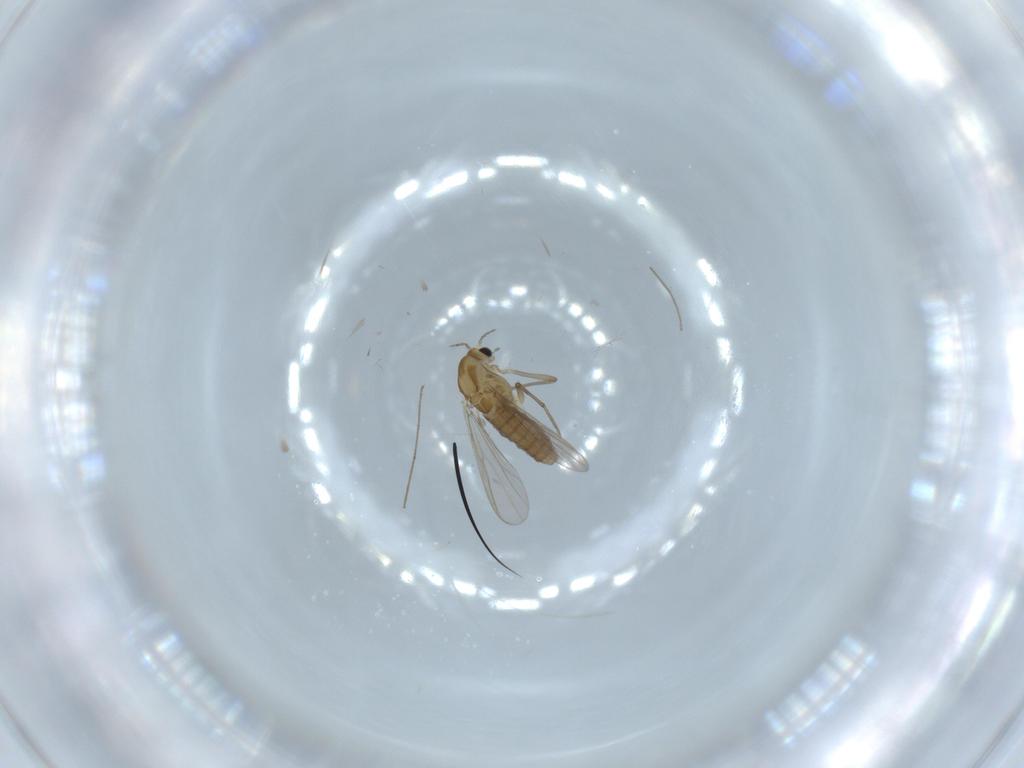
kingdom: Animalia
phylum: Arthropoda
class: Insecta
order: Diptera
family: Chironomidae
